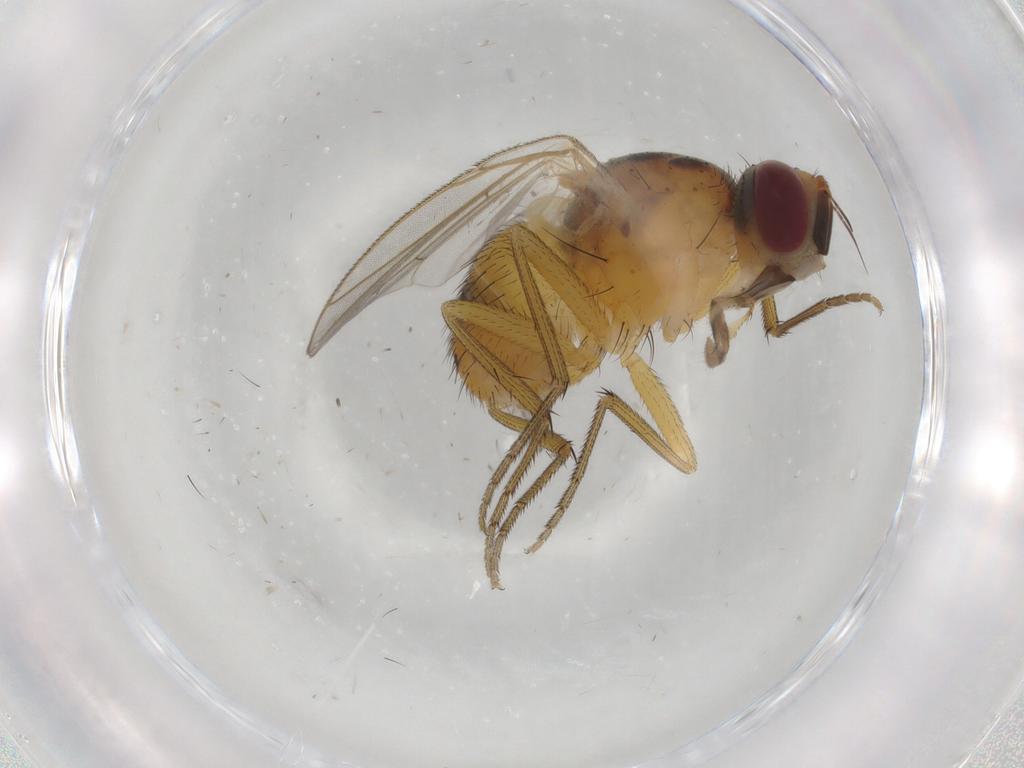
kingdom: Animalia
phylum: Arthropoda
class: Insecta
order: Diptera
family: Muscidae
